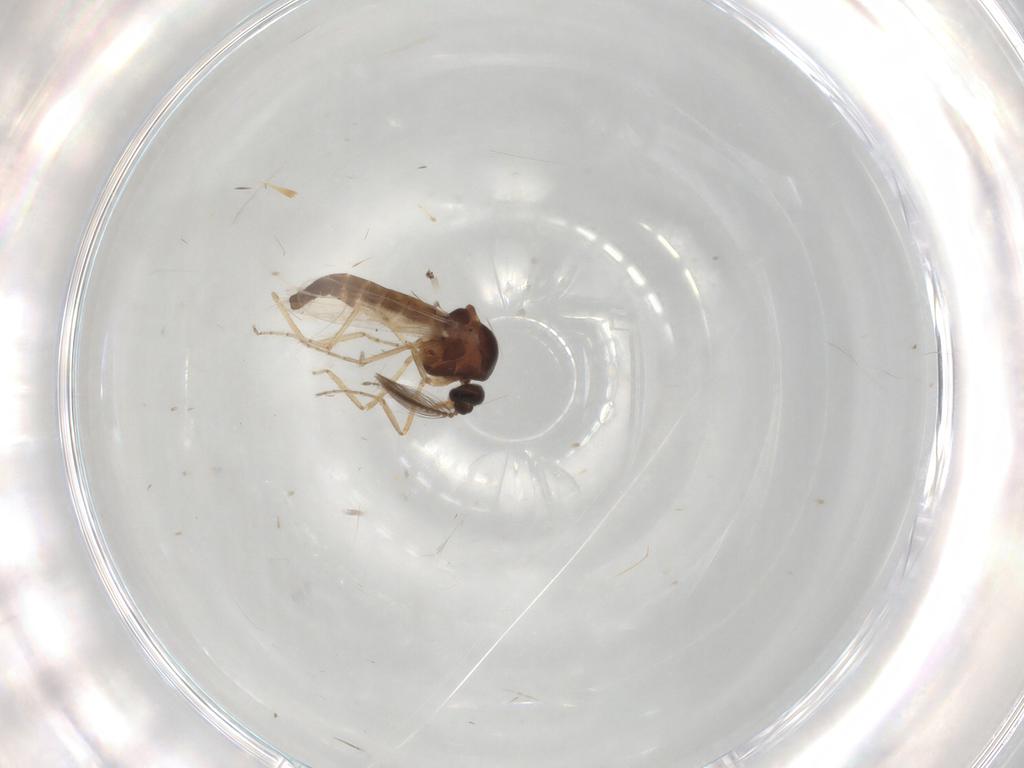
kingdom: Animalia
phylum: Arthropoda
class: Insecta
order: Diptera
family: Ceratopogonidae
